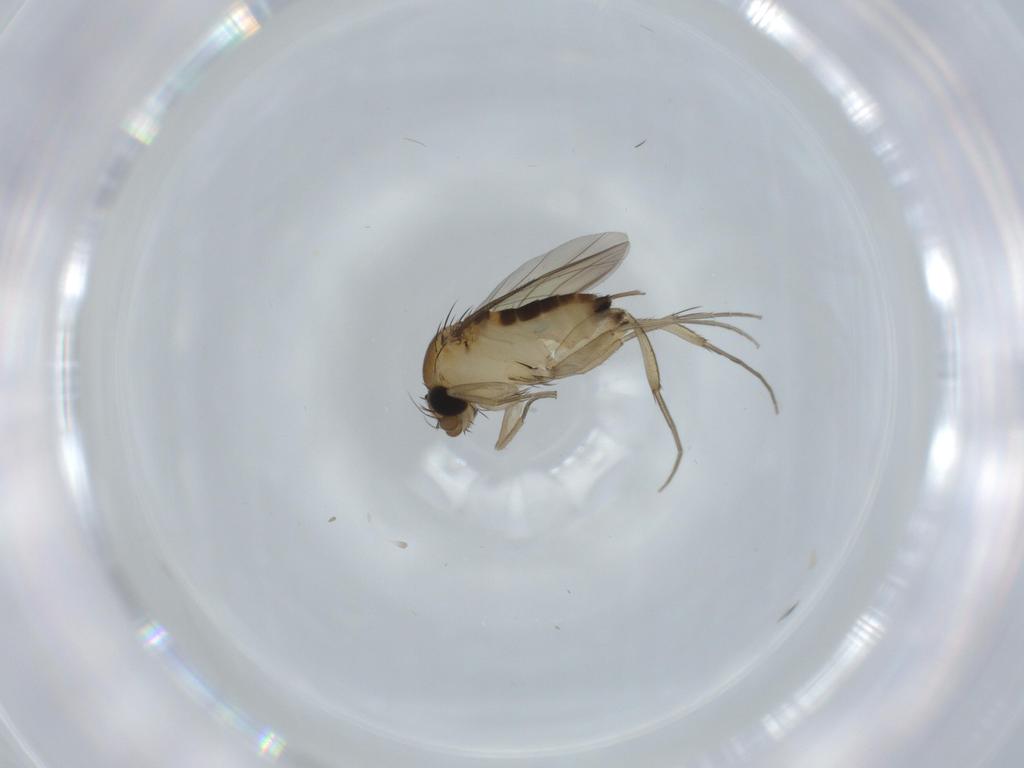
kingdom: Animalia
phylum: Arthropoda
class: Insecta
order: Diptera
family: Phoridae
